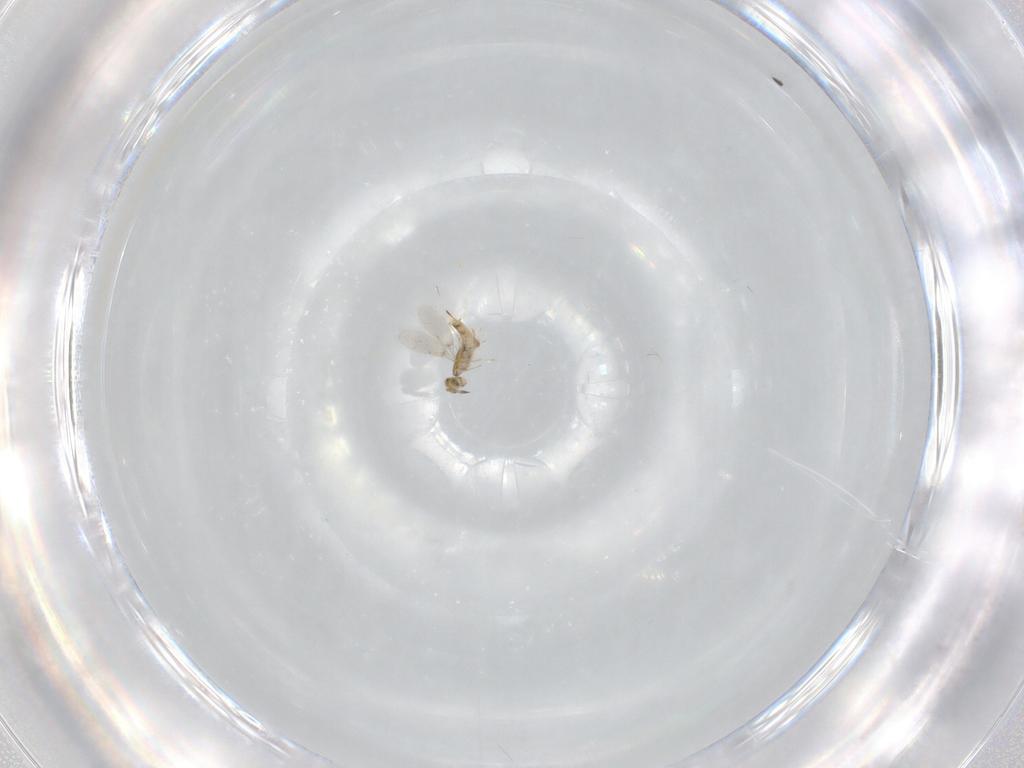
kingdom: Animalia
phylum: Arthropoda
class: Insecta
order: Hymenoptera
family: Aphelinidae
